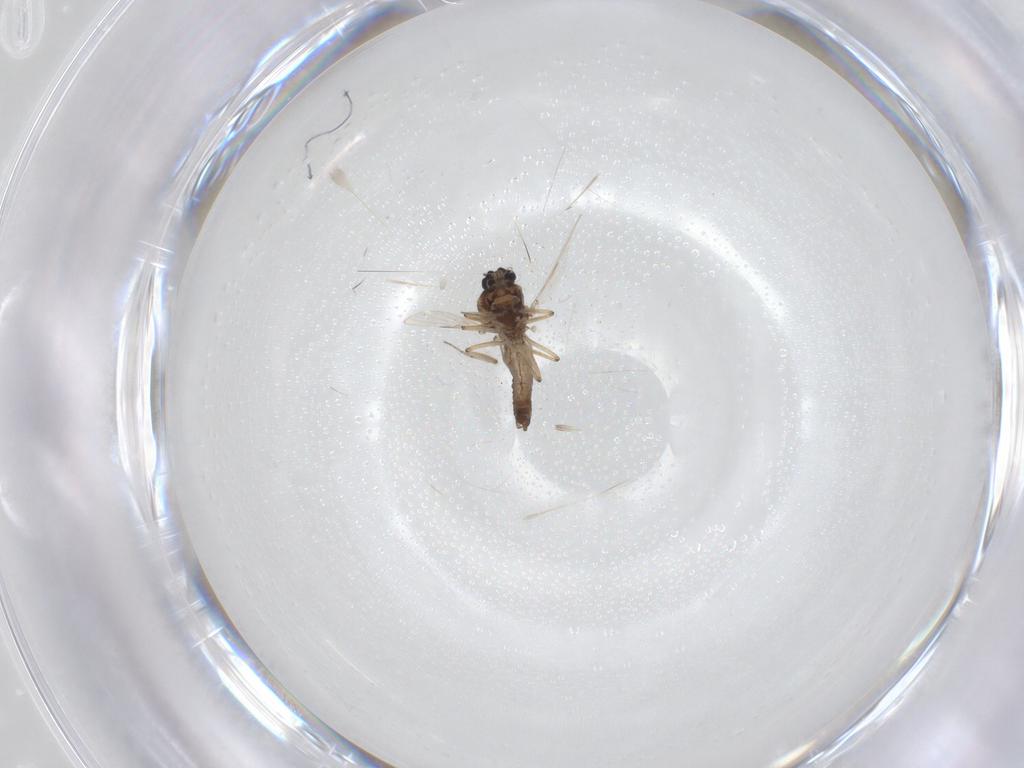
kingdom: Animalia
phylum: Arthropoda
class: Insecta
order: Diptera
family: Ceratopogonidae
